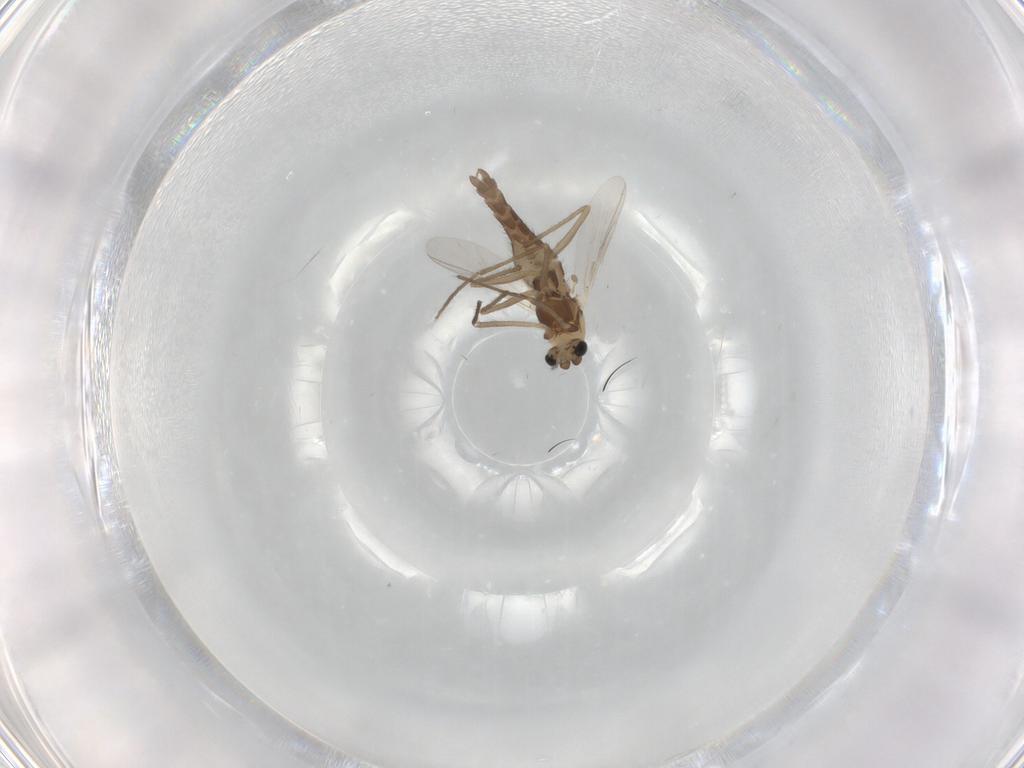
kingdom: Animalia
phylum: Arthropoda
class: Insecta
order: Diptera
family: Chironomidae
